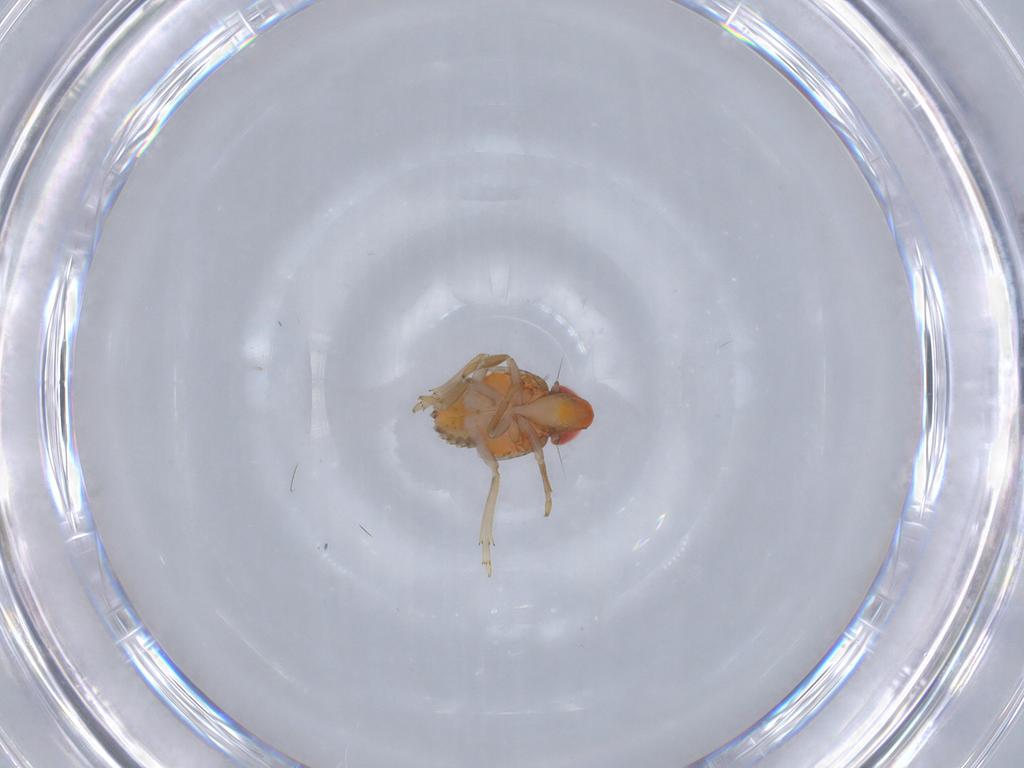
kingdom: Animalia
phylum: Arthropoda
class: Insecta
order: Hemiptera
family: Fulgoroidea_incertae_sedis
